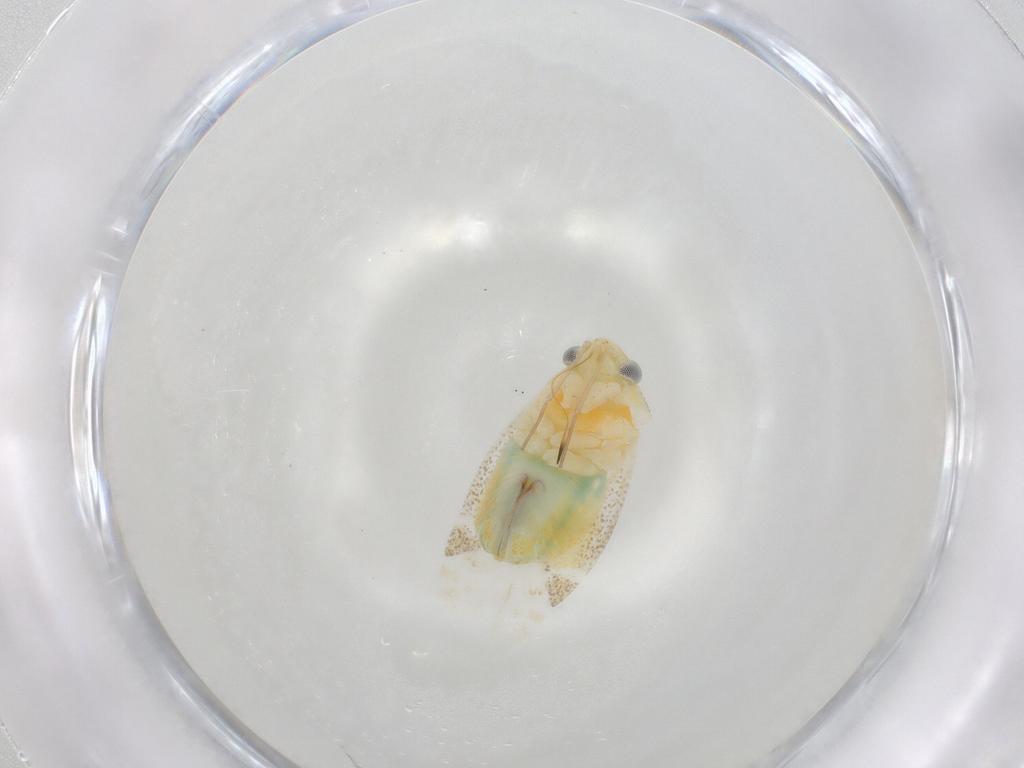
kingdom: Animalia
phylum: Arthropoda
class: Insecta
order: Hemiptera
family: Miridae
